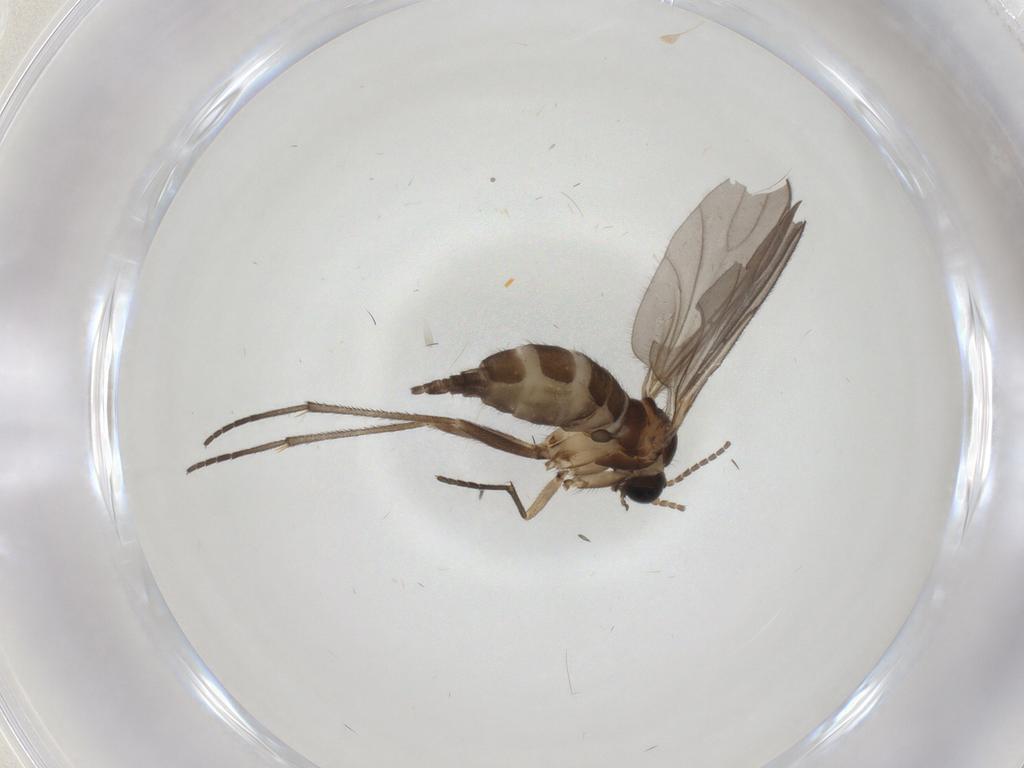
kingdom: Animalia
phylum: Arthropoda
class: Insecta
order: Diptera
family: Sciaridae
